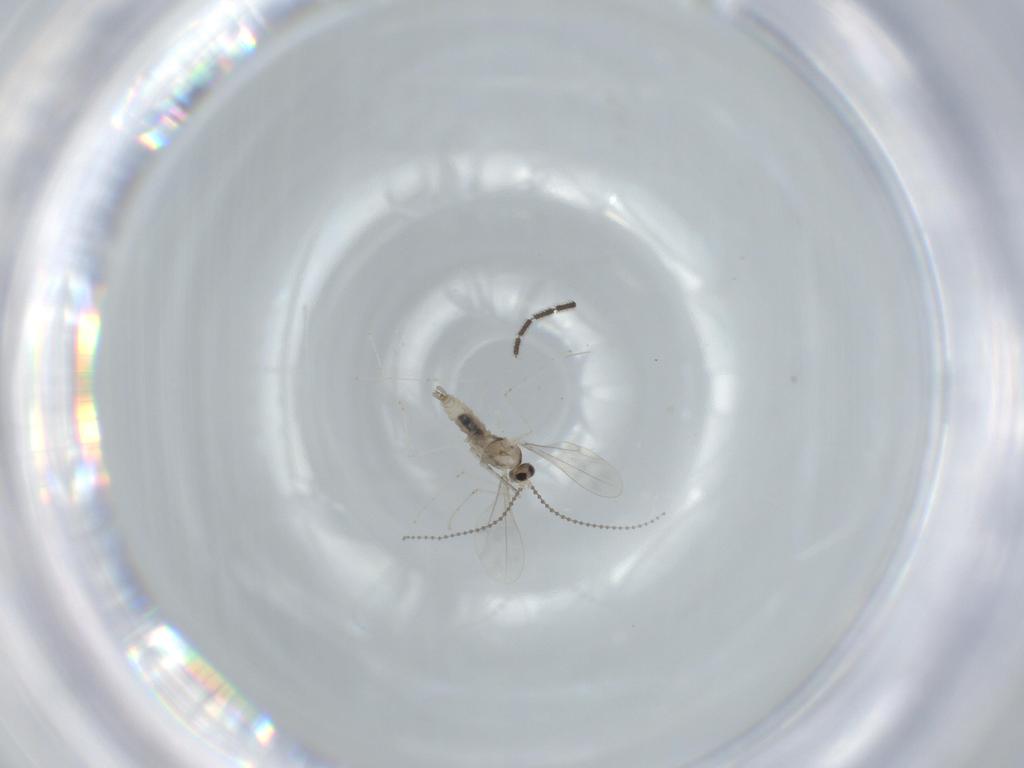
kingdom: Animalia
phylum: Arthropoda
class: Insecta
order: Diptera
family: Cecidomyiidae
